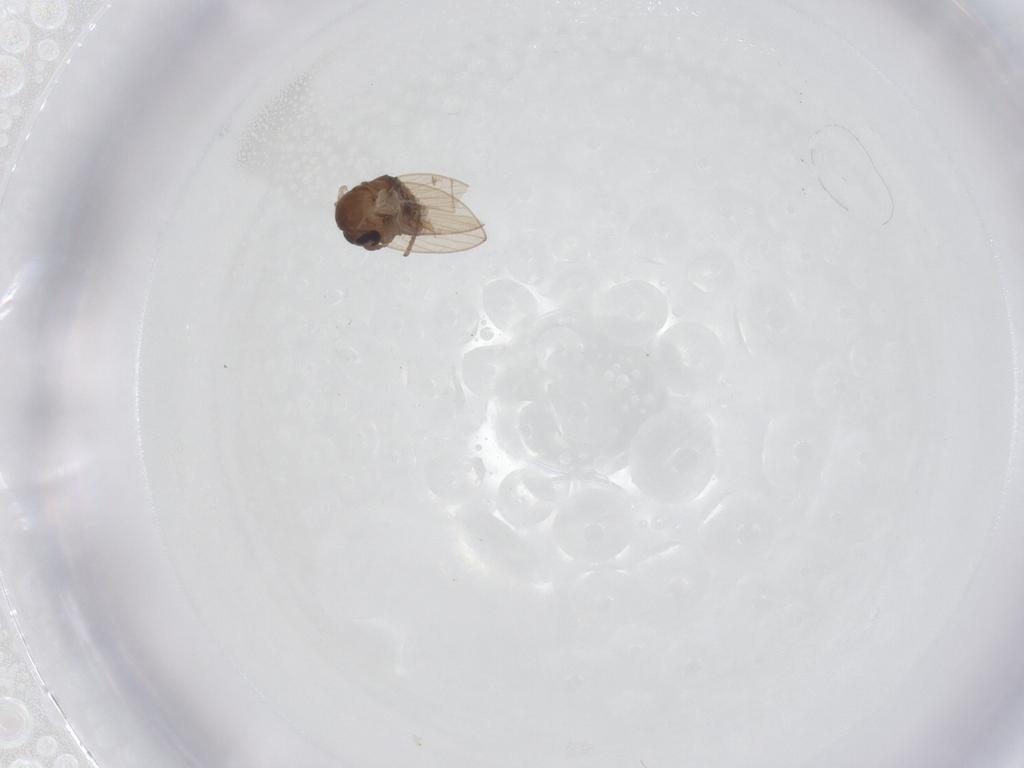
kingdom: Animalia
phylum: Arthropoda
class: Insecta
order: Diptera
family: Psychodidae
